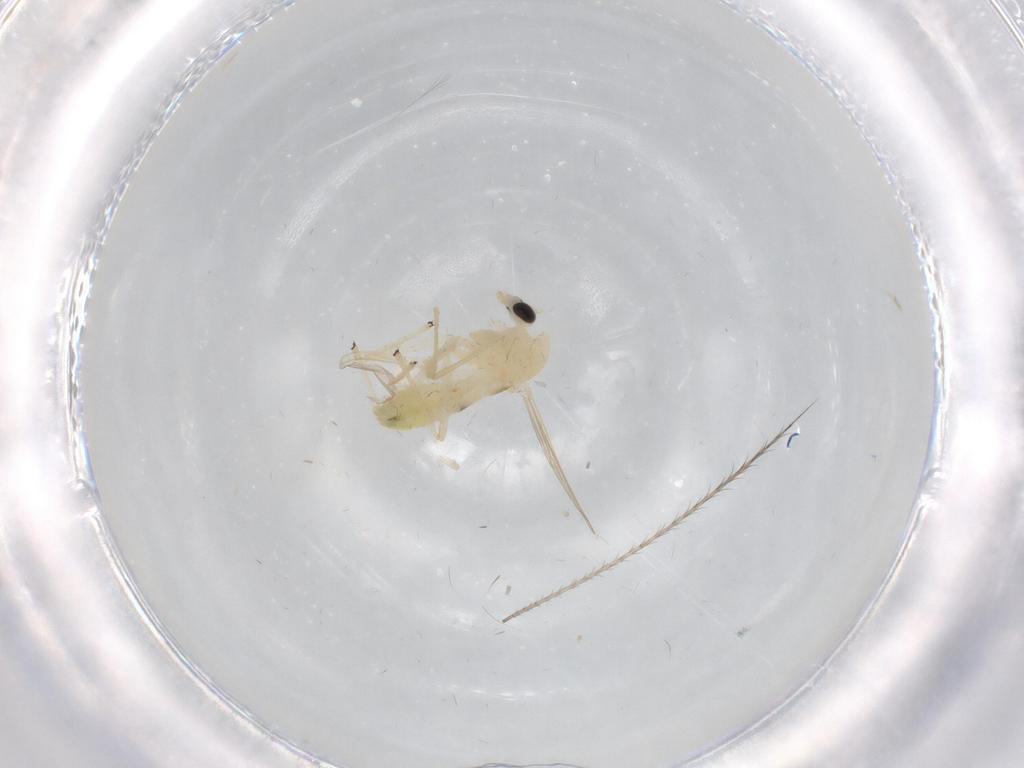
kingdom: Animalia
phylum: Arthropoda
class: Insecta
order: Diptera
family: Chironomidae
